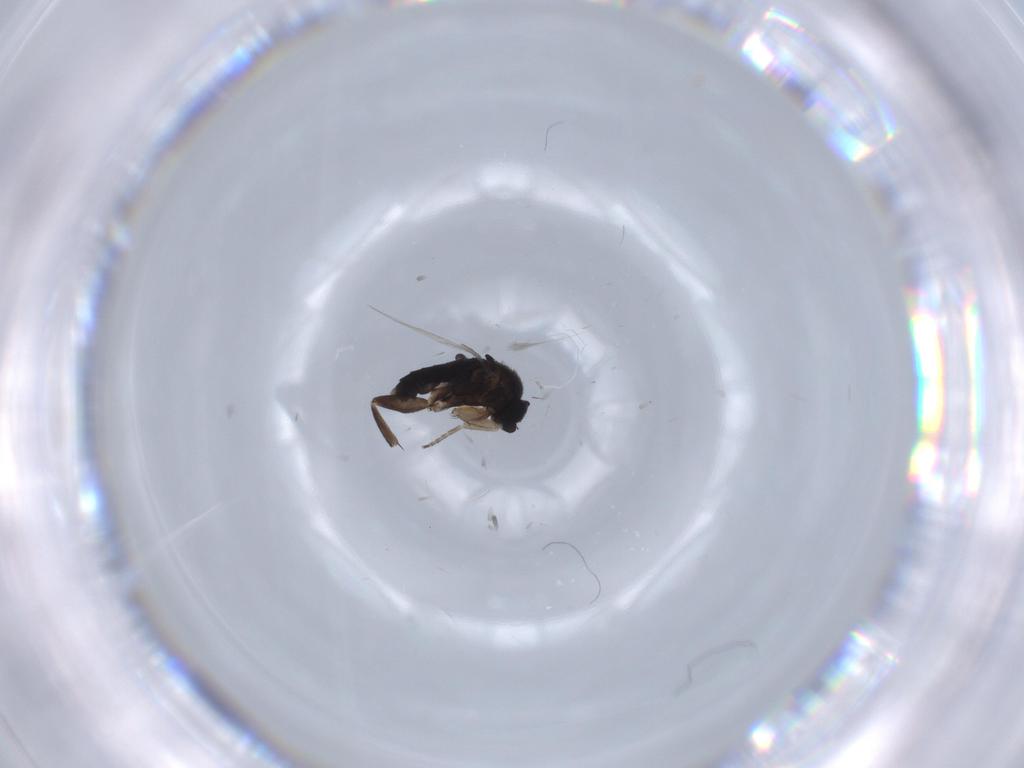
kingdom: Animalia
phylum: Arthropoda
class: Insecta
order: Diptera
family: Phoridae
